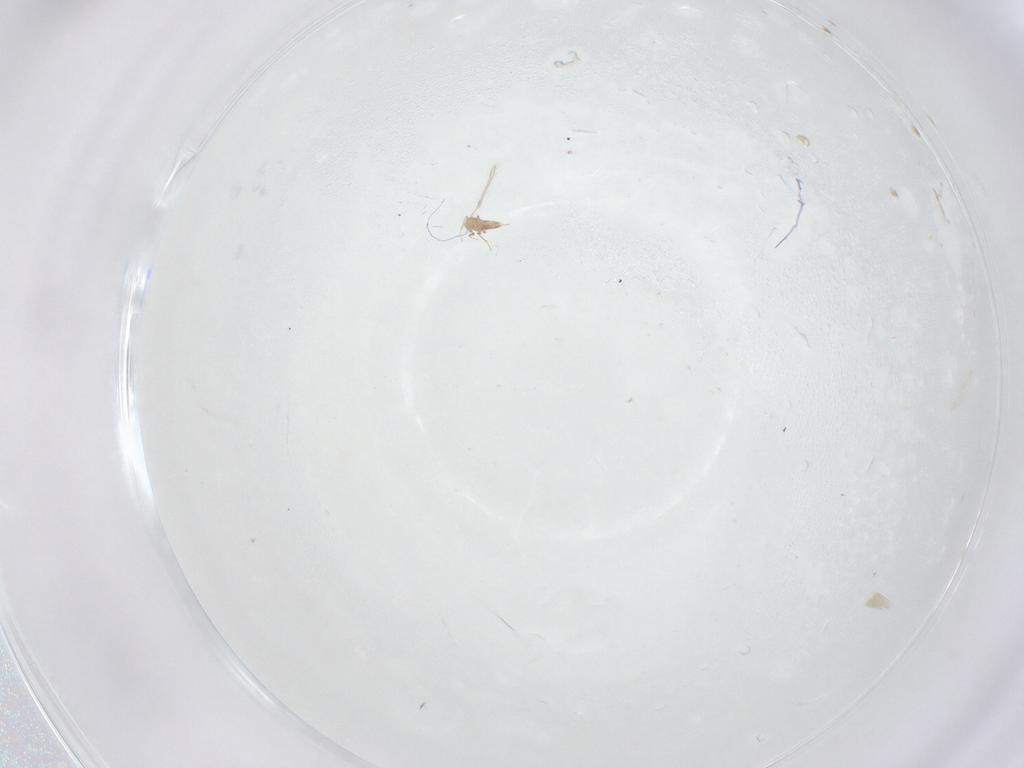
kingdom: Animalia
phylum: Arthropoda
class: Insecta
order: Hymenoptera
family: Mymaridae
